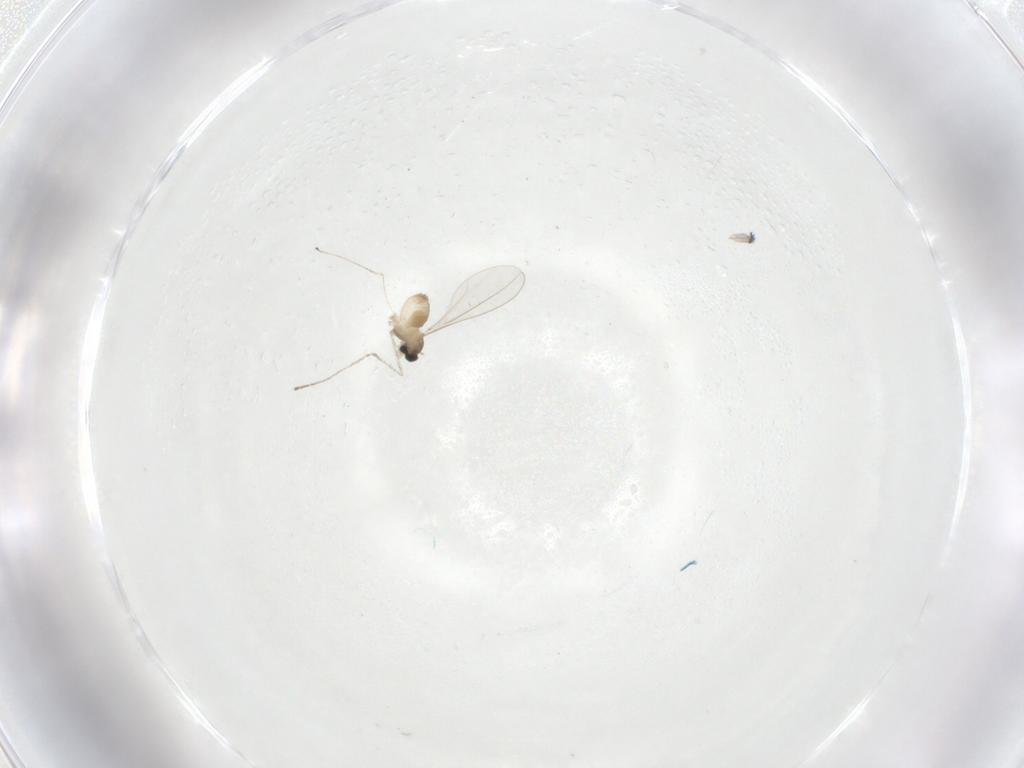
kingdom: Animalia
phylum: Arthropoda
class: Insecta
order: Diptera
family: Cecidomyiidae
